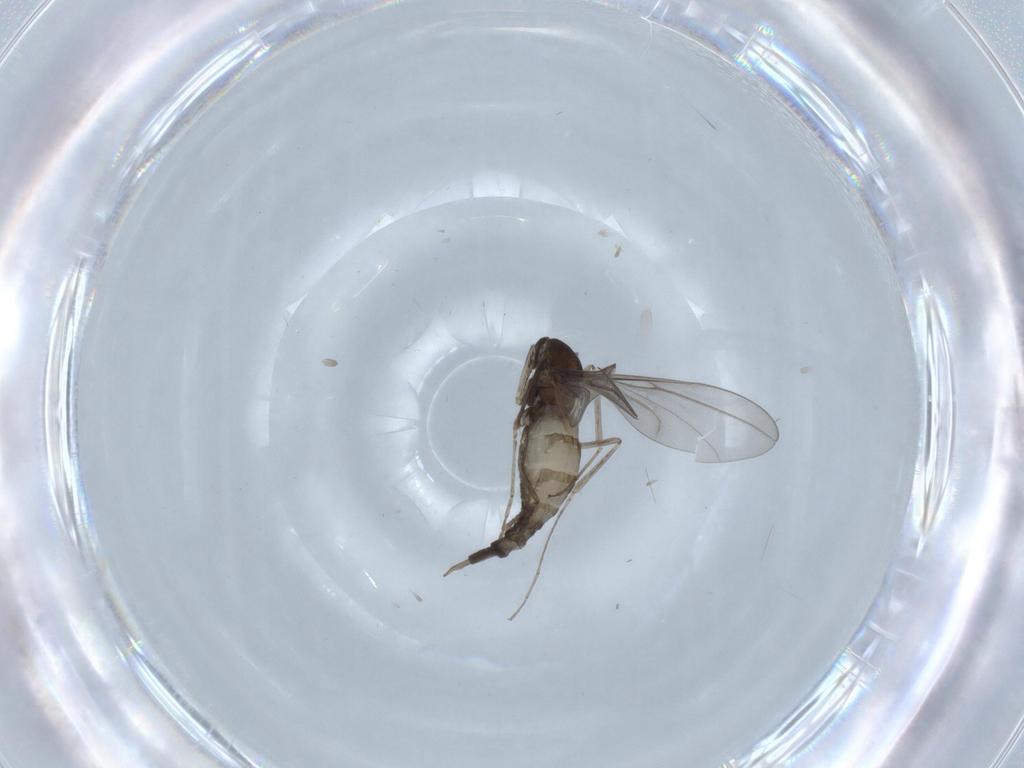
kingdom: Animalia
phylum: Arthropoda
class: Insecta
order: Diptera
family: Cecidomyiidae
